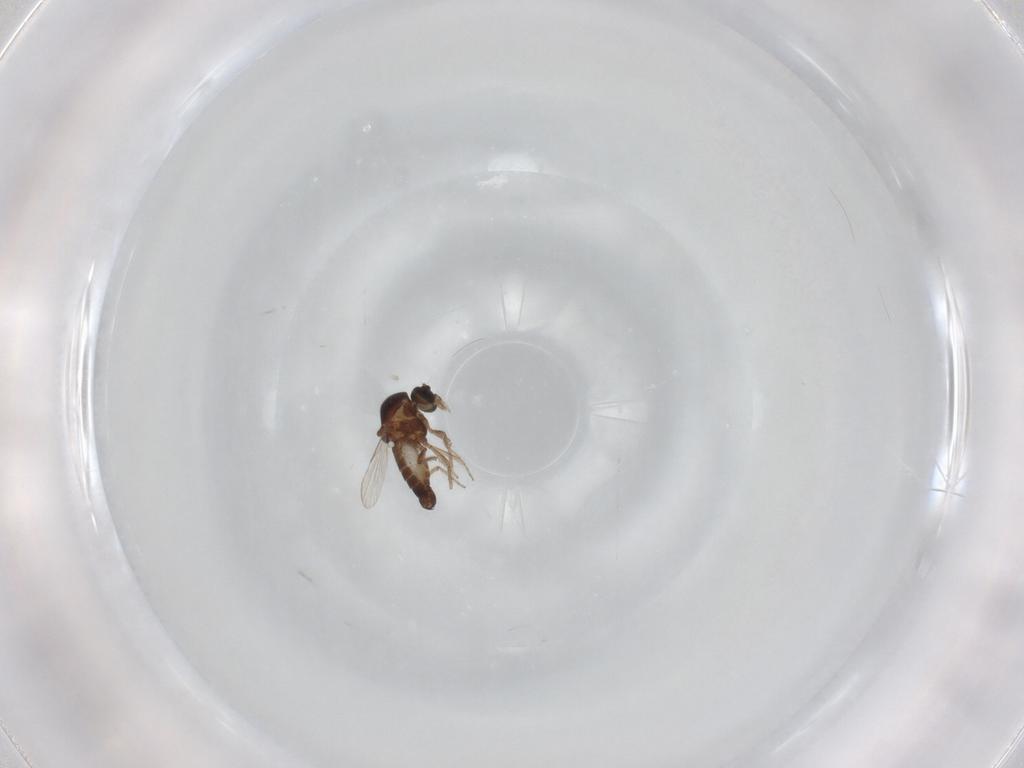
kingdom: Animalia
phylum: Arthropoda
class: Insecta
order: Diptera
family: Ceratopogonidae
